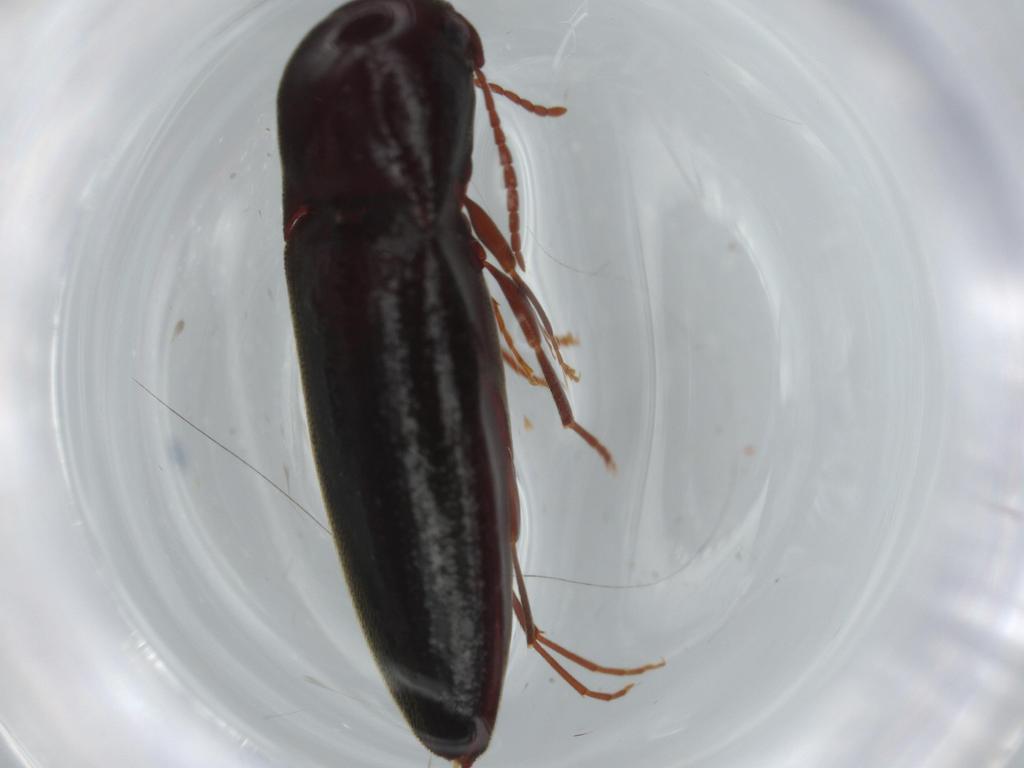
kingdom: Animalia
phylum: Arthropoda
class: Insecta
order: Coleoptera
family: Eucnemidae
